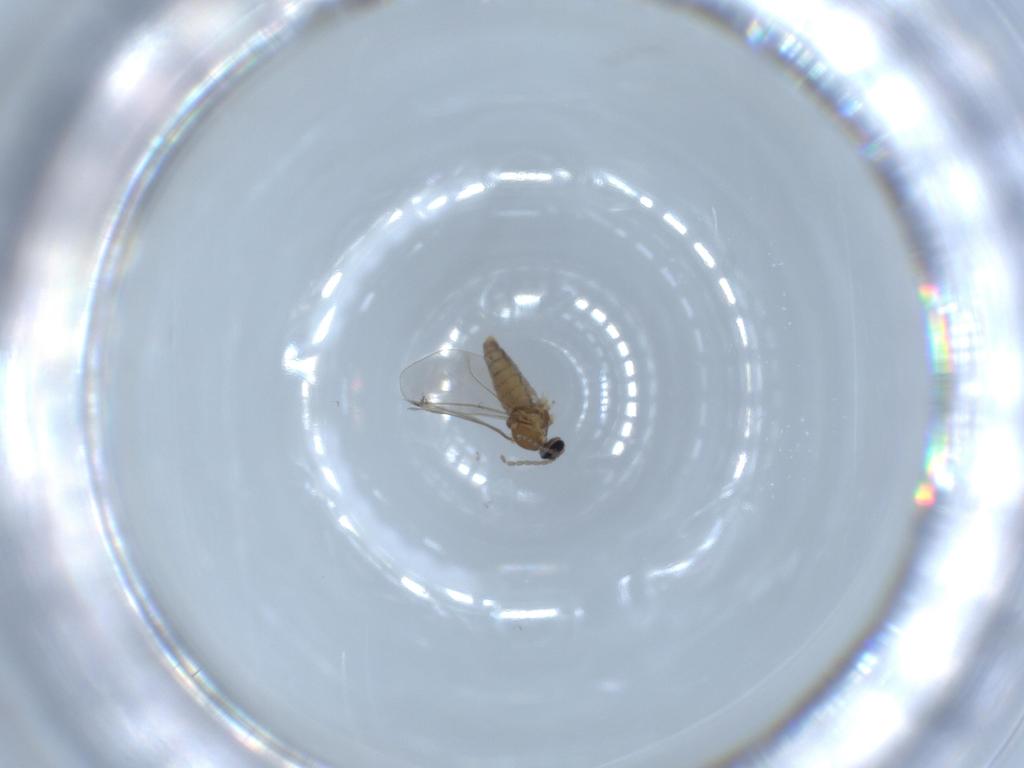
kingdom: Animalia
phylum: Arthropoda
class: Insecta
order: Diptera
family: Cecidomyiidae
